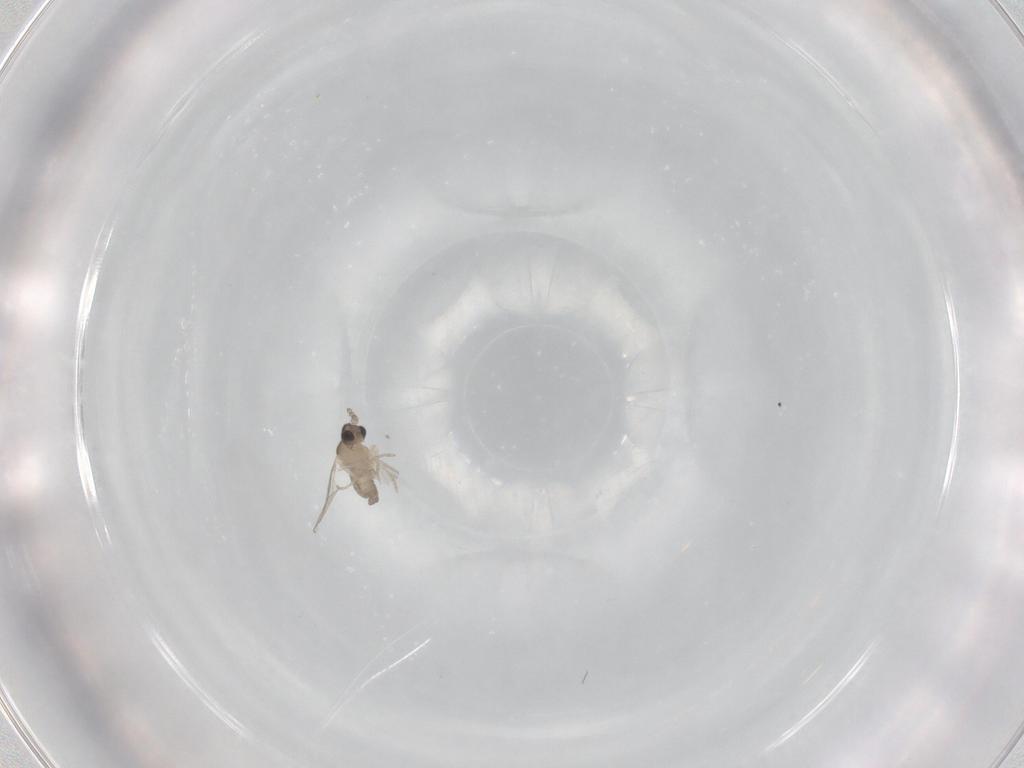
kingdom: Animalia
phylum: Arthropoda
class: Insecta
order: Diptera
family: Cecidomyiidae
